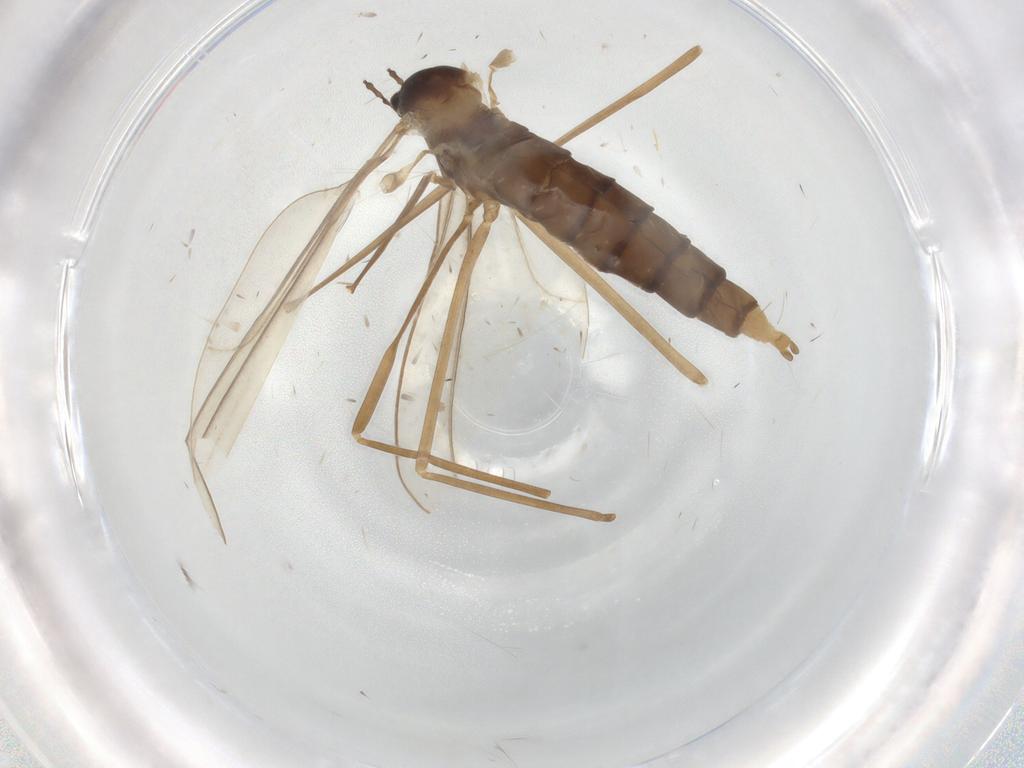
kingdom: Animalia
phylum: Arthropoda
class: Insecta
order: Diptera
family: Cecidomyiidae
